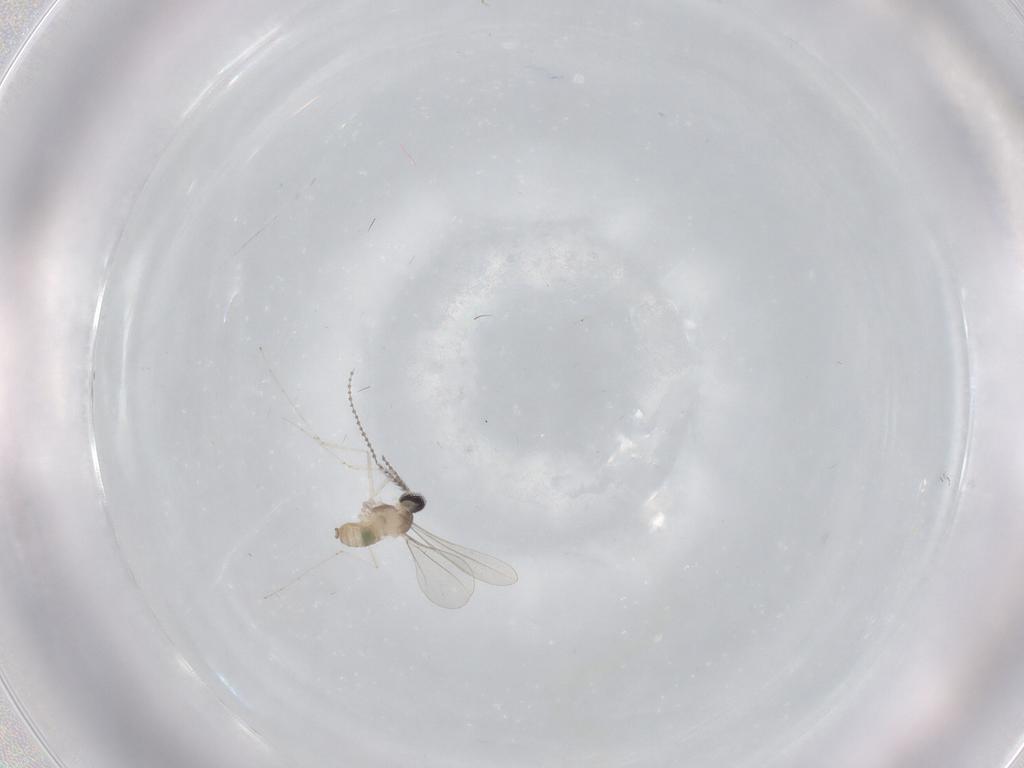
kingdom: Animalia
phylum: Arthropoda
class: Insecta
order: Diptera
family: Cecidomyiidae
